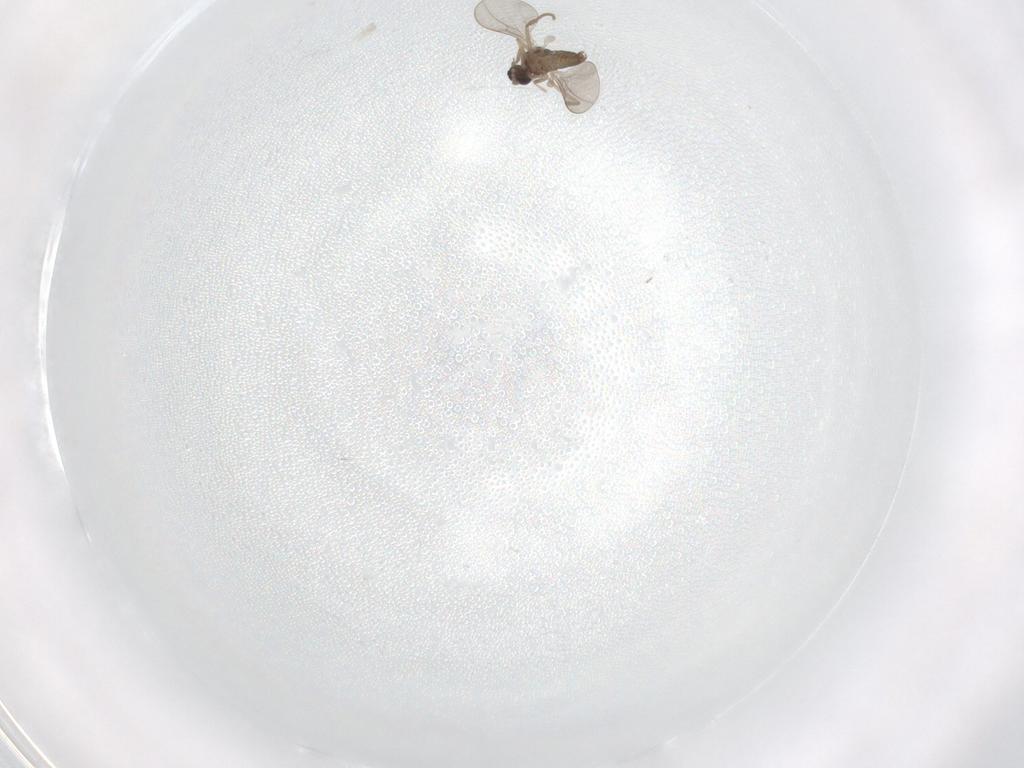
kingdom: Animalia
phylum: Arthropoda
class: Insecta
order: Diptera
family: Cecidomyiidae
